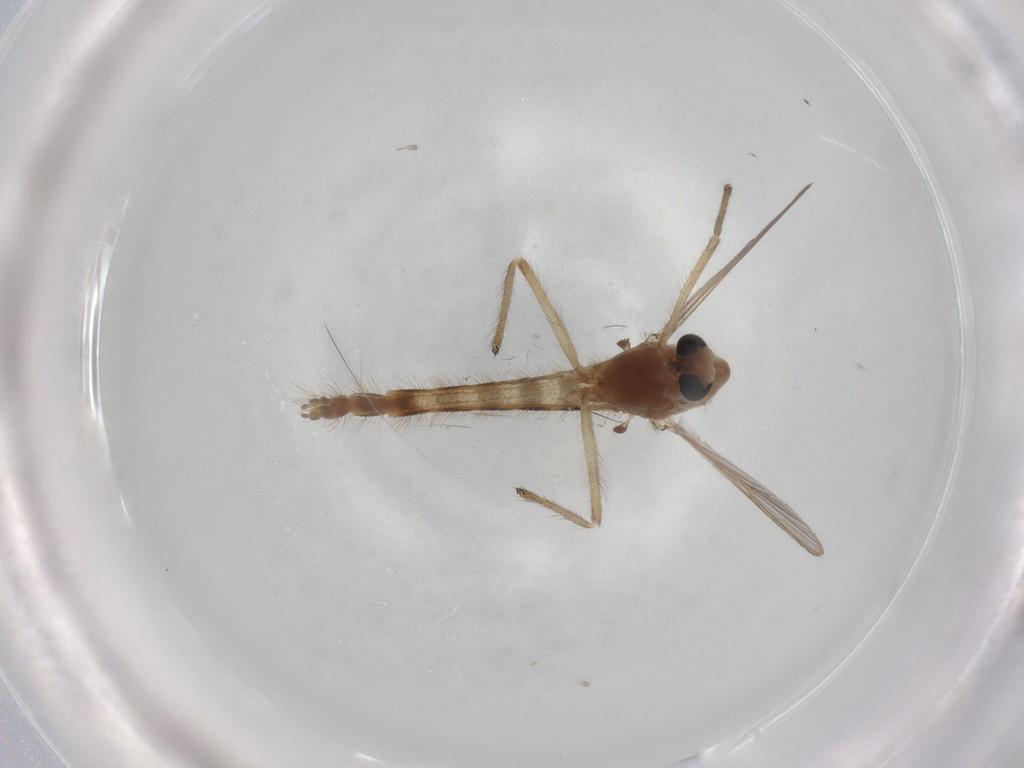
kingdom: Animalia
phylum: Arthropoda
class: Insecta
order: Diptera
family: Chironomidae
